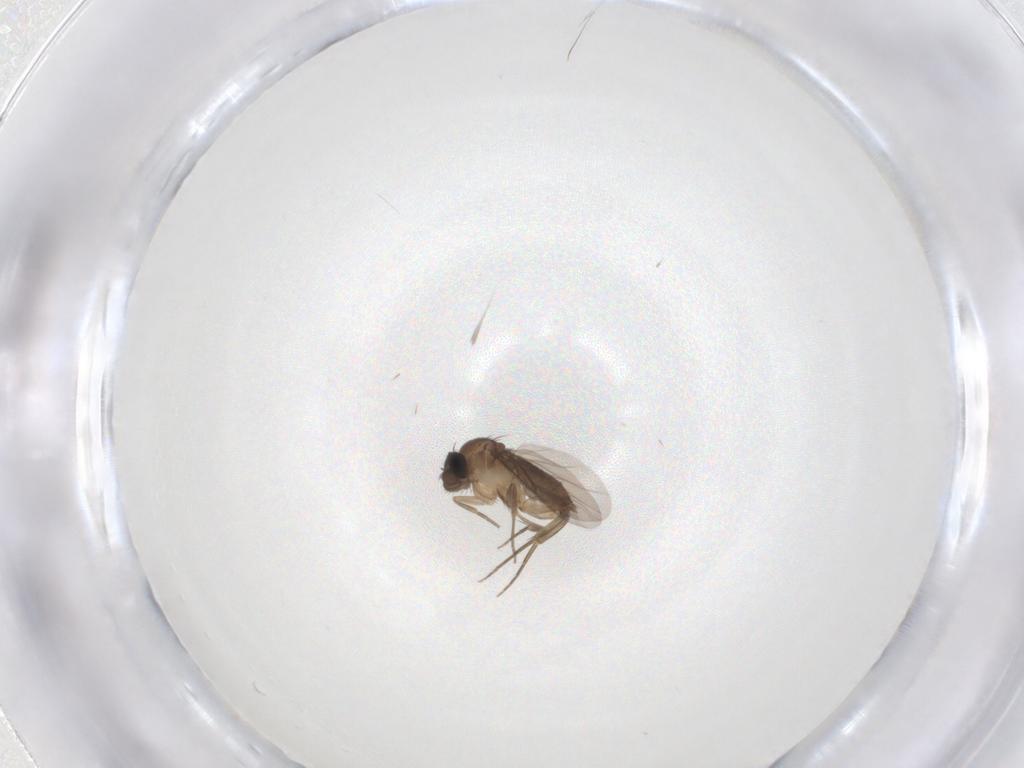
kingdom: Animalia
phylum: Arthropoda
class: Insecta
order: Diptera
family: Phoridae
